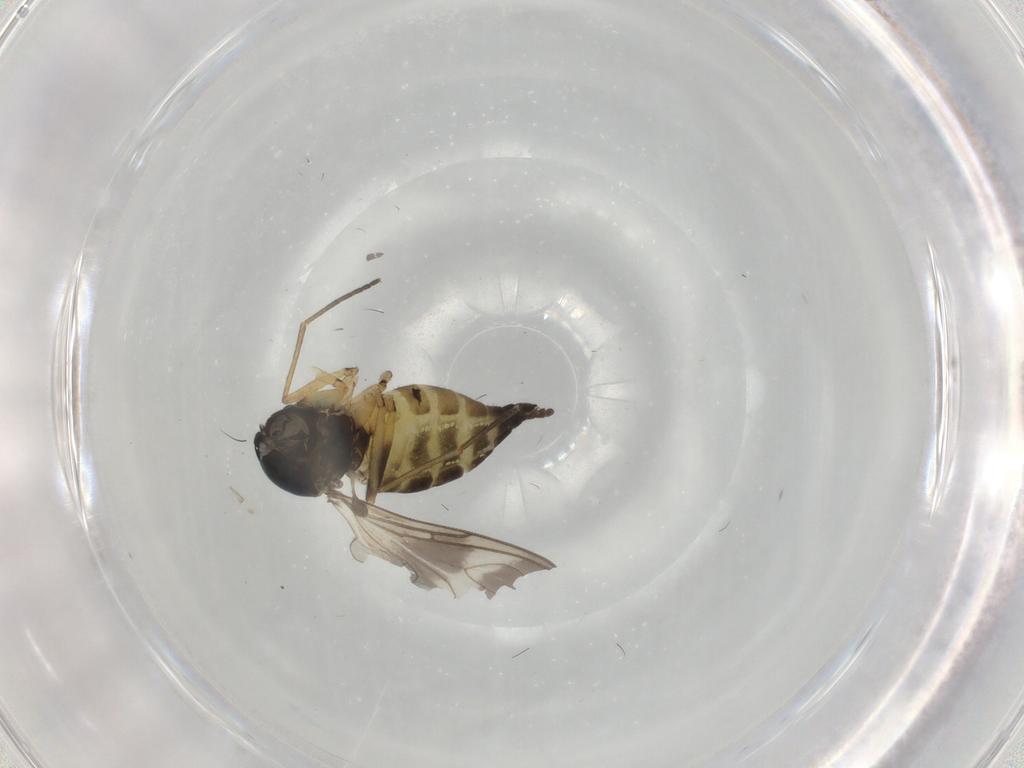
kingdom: Animalia
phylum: Arthropoda
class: Insecta
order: Diptera
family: Sciaridae
